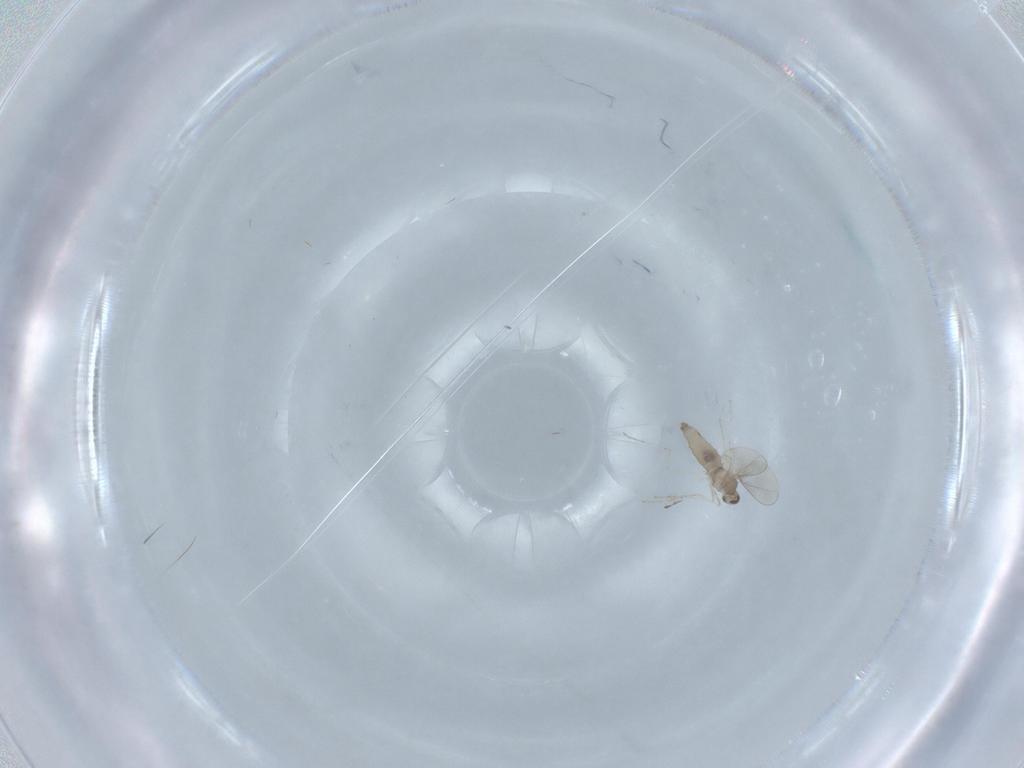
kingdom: Animalia
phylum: Arthropoda
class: Insecta
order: Diptera
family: Cecidomyiidae
